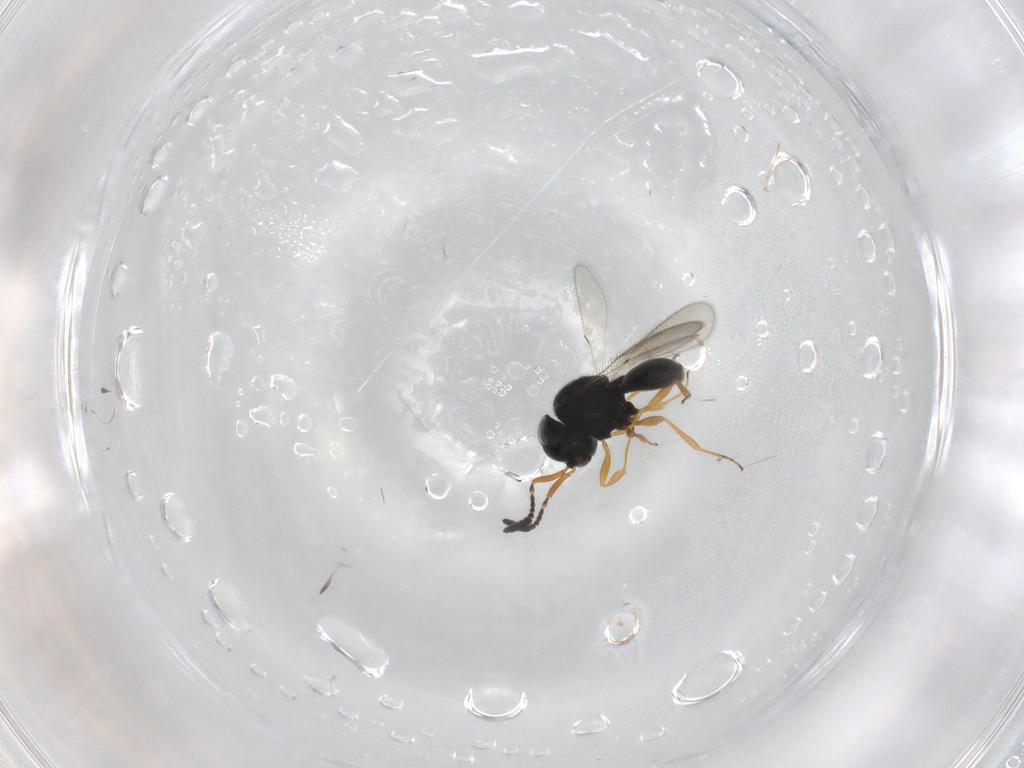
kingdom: Animalia
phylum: Arthropoda
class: Insecta
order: Hymenoptera
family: Scelionidae
